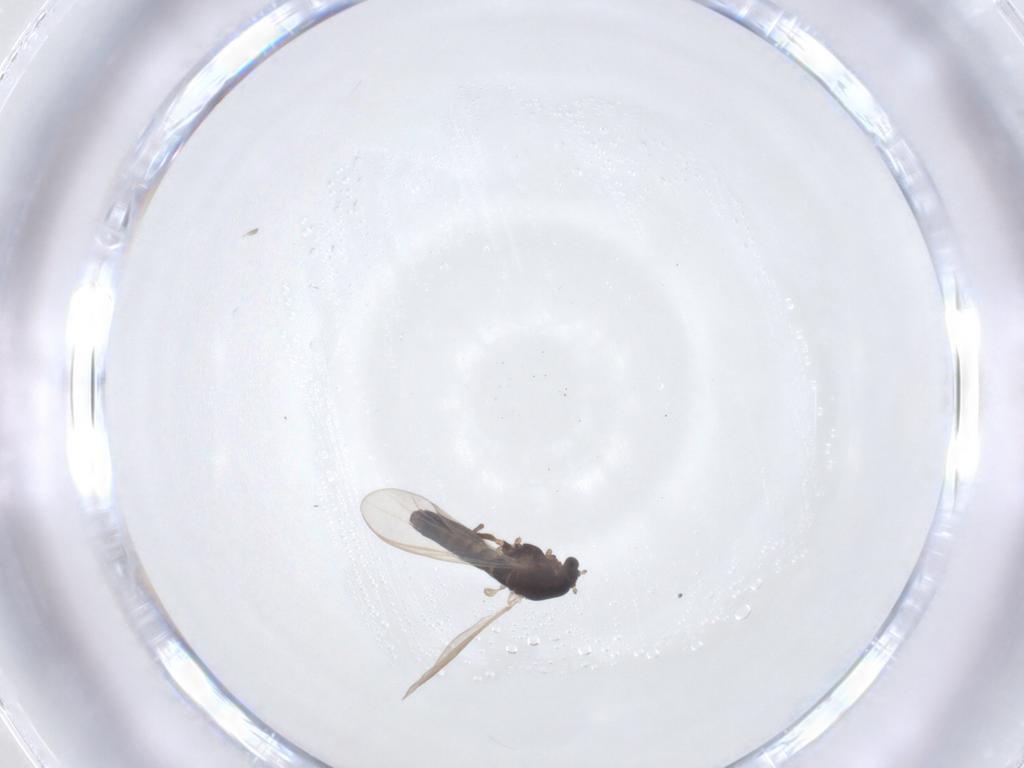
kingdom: Animalia
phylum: Arthropoda
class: Insecta
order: Diptera
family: Chironomidae
